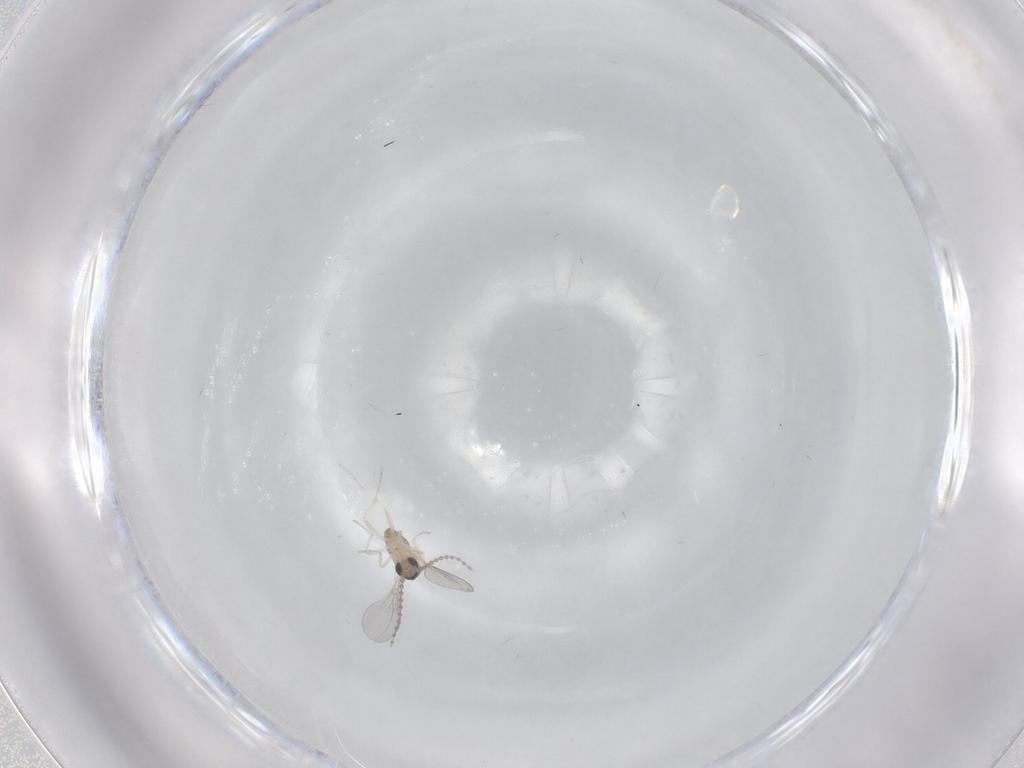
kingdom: Animalia
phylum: Arthropoda
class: Insecta
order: Diptera
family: Cecidomyiidae
